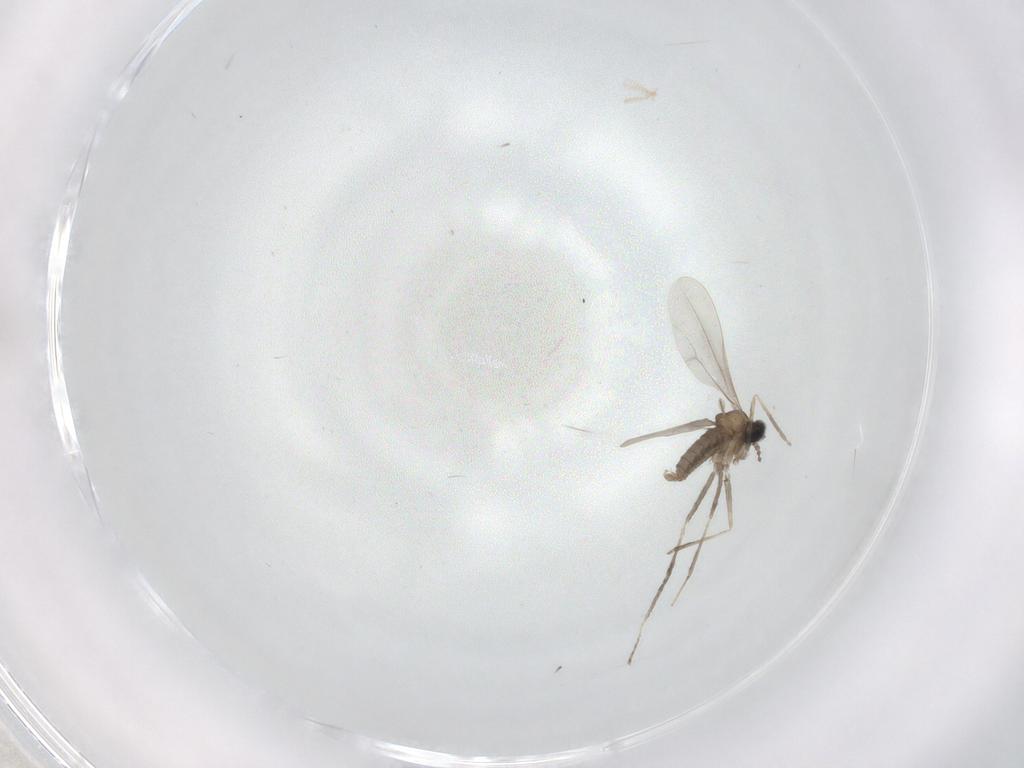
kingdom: Animalia
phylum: Arthropoda
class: Insecta
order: Diptera
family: Cecidomyiidae
